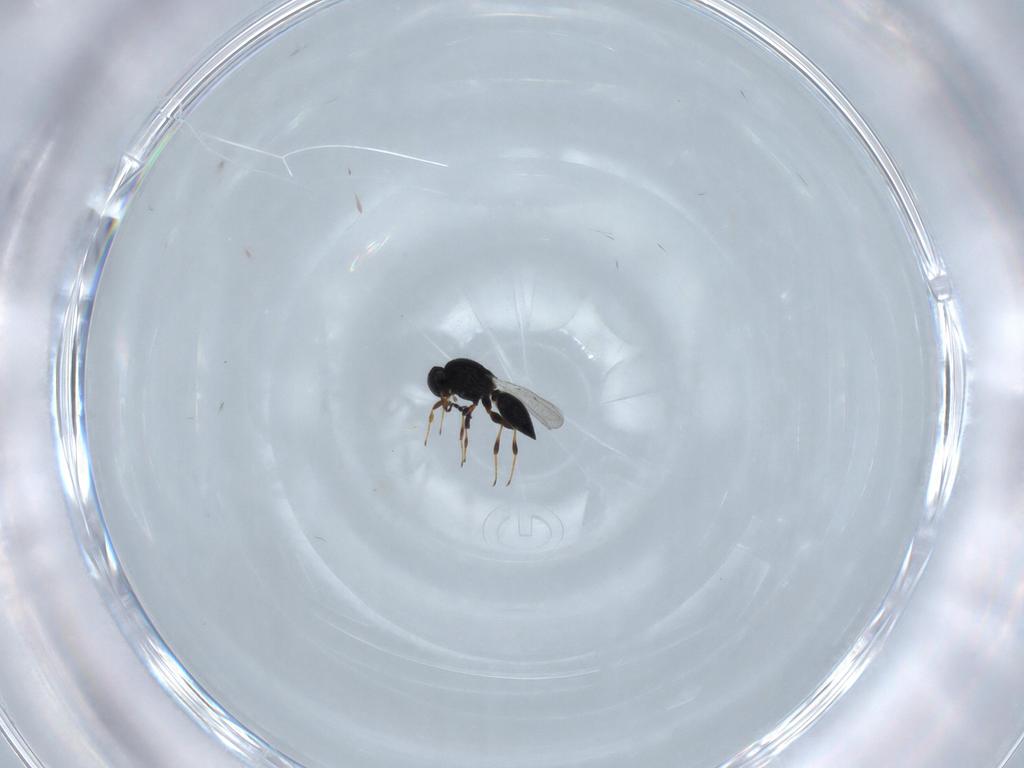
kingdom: Animalia
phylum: Arthropoda
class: Insecta
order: Hymenoptera
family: Platygastridae
